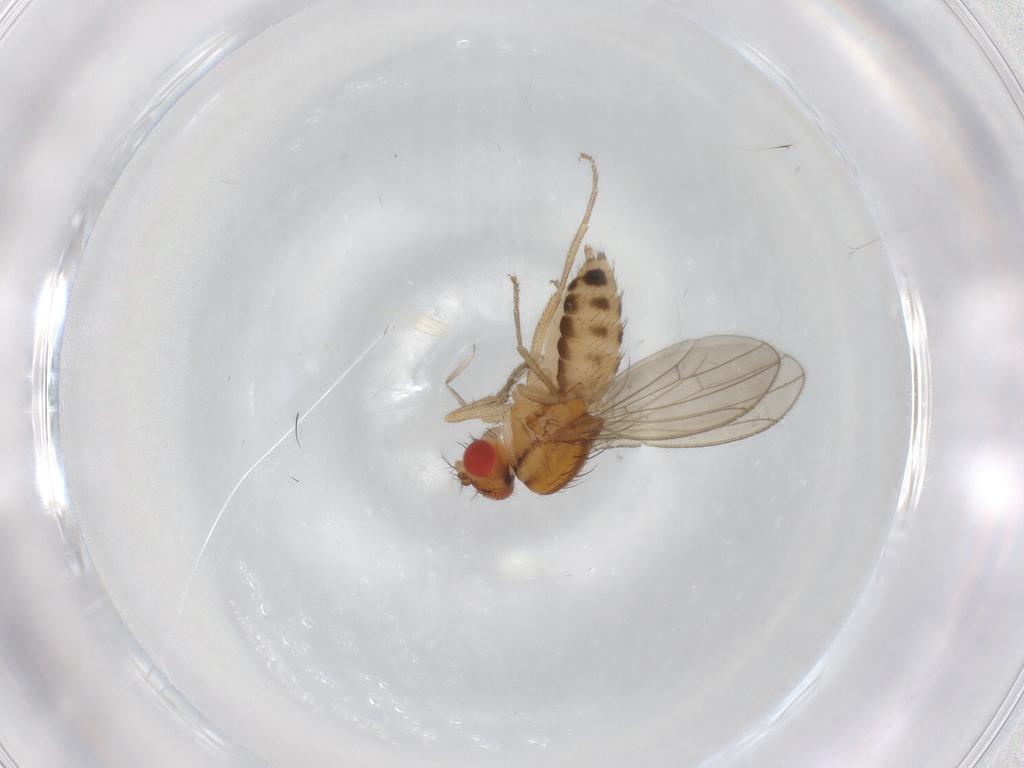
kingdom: Animalia
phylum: Arthropoda
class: Insecta
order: Diptera
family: Drosophilidae
